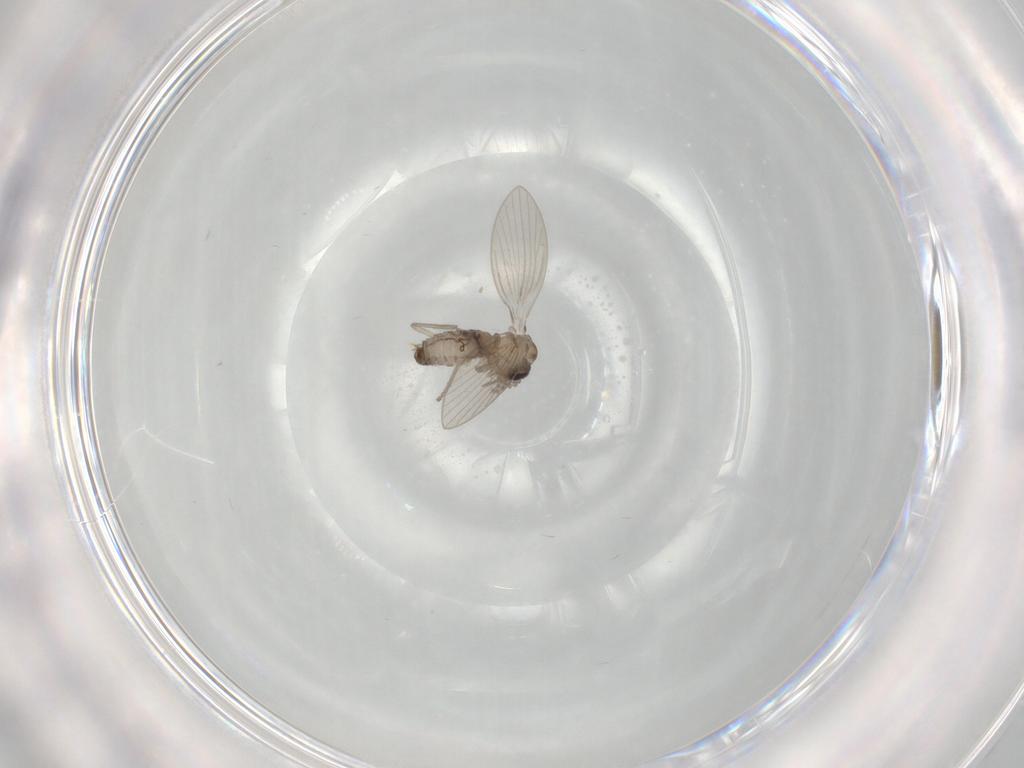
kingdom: Animalia
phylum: Arthropoda
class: Insecta
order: Diptera
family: Psychodidae
